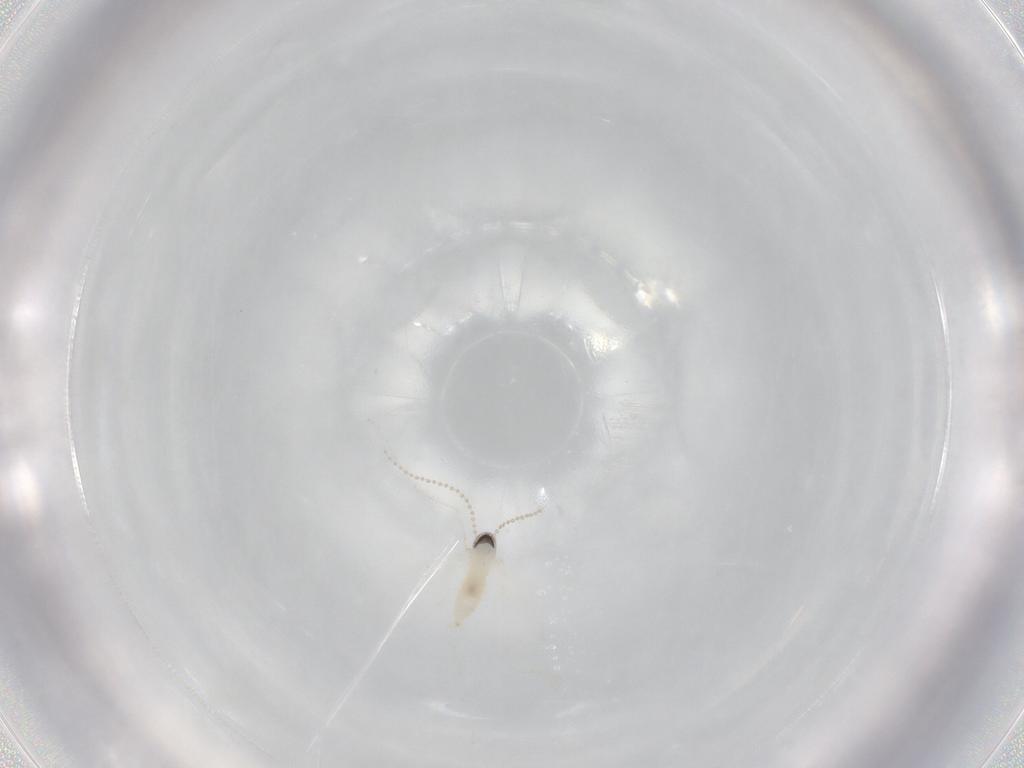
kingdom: Animalia
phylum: Arthropoda
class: Insecta
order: Diptera
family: Cecidomyiidae
